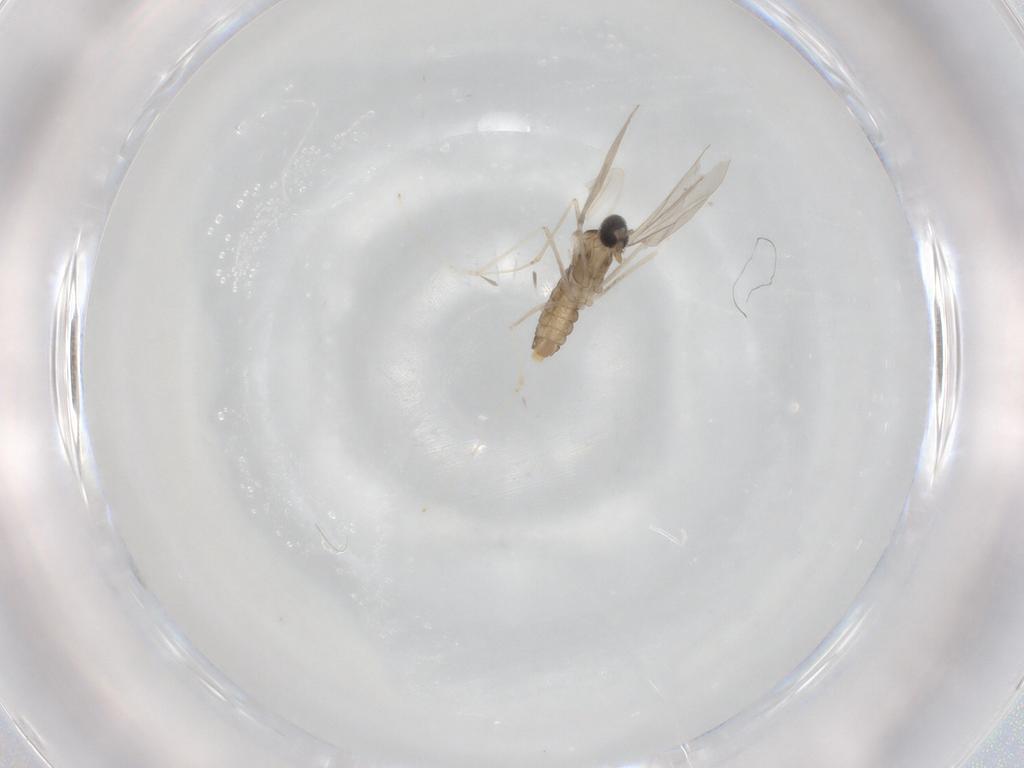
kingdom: Animalia
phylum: Arthropoda
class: Insecta
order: Diptera
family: Cecidomyiidae
